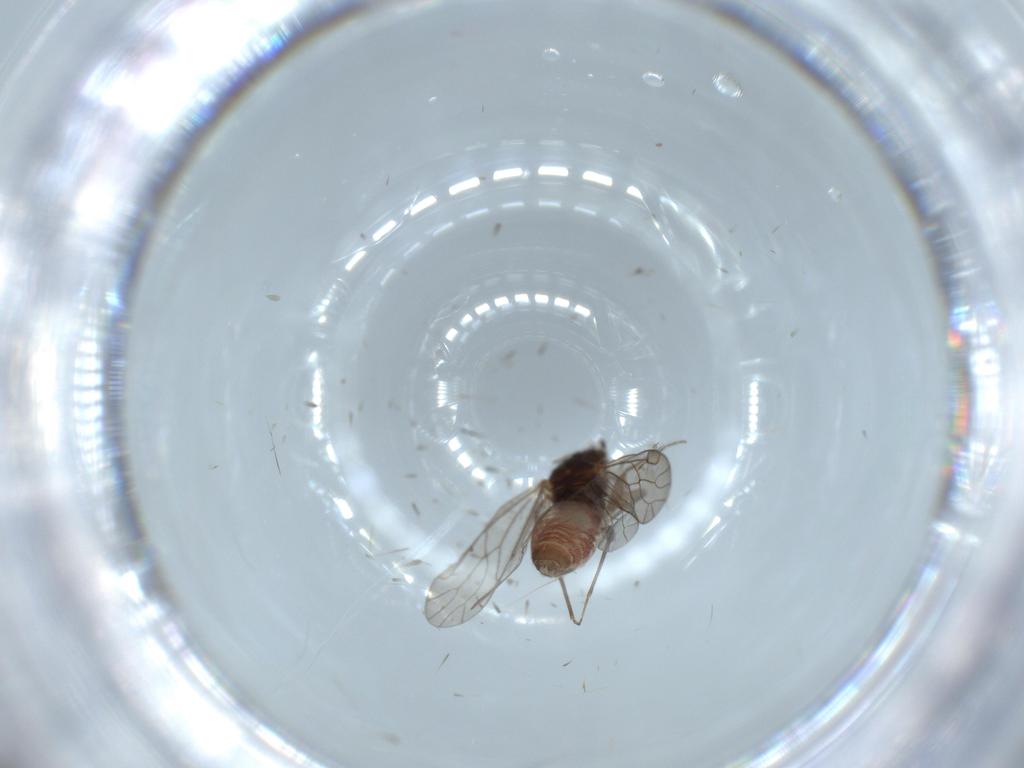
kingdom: Animalia
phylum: Arthropoda
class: Insecta
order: Psocodea
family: Ectopsocidae
